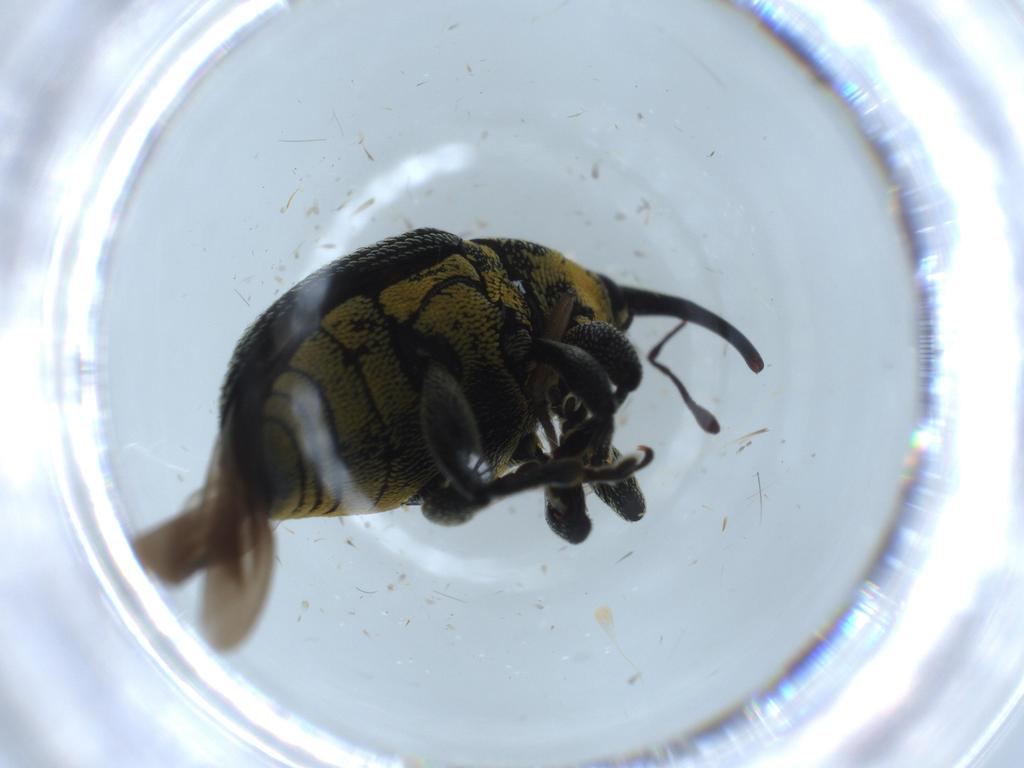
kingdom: Animalia
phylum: Arthropoda
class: Insecta
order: Coleoptera
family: Curculionidae
